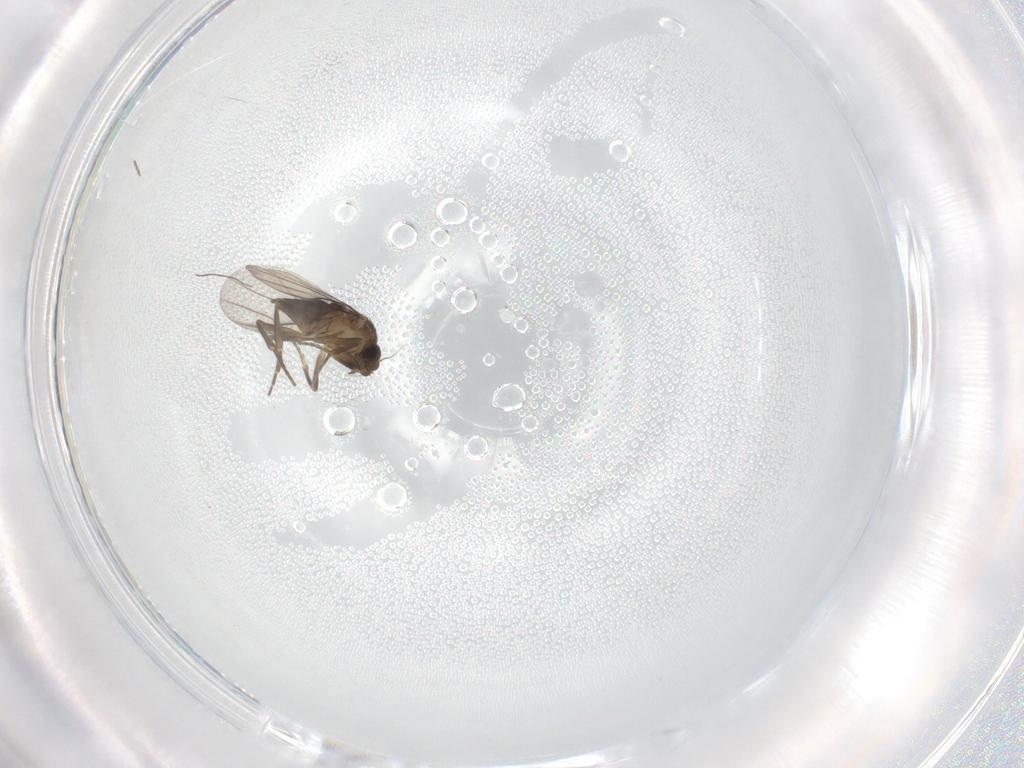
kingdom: Animalia
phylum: Arthropoda
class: Insecta
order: Diptera
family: Phoridae
